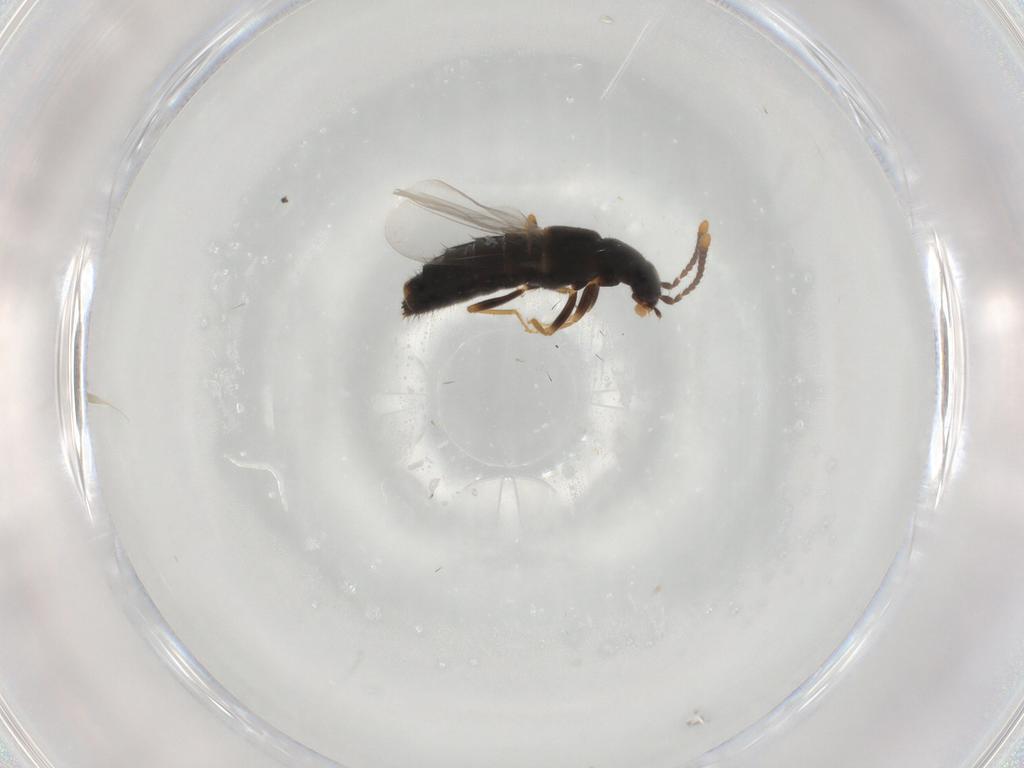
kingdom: Animalia
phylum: Arthropoda
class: Insecta
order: Coleoptera
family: Staphylinidae
